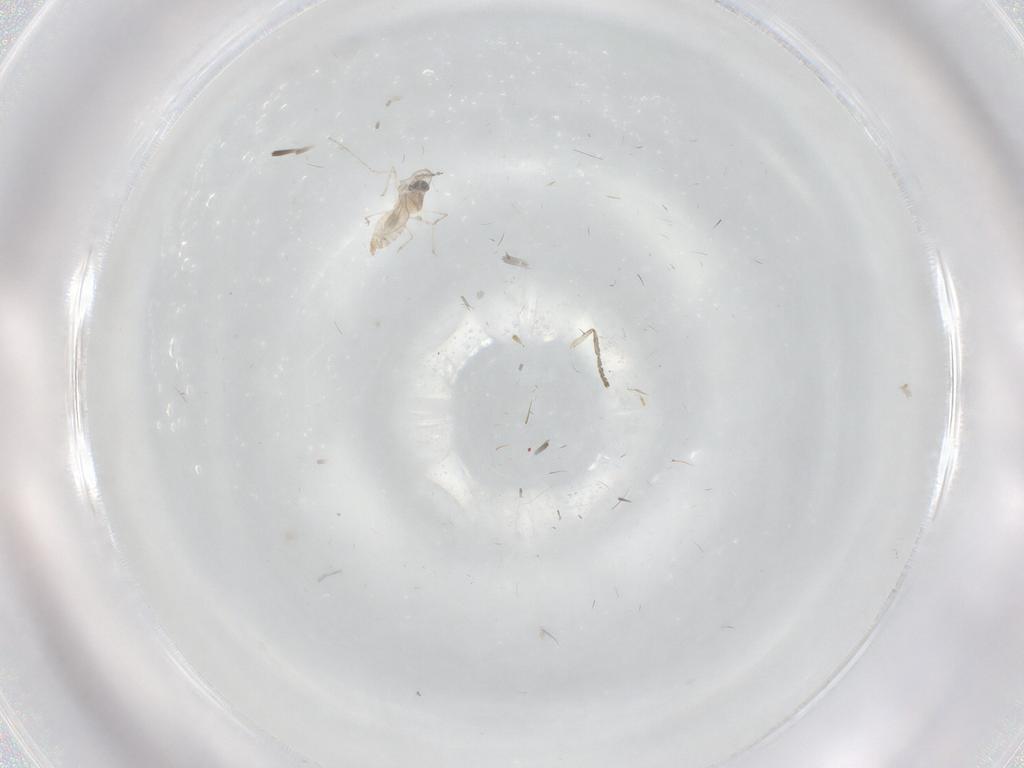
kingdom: Animalia
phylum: Arthropoda
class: Insecta
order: Diptera
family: Cecidomyiidae
